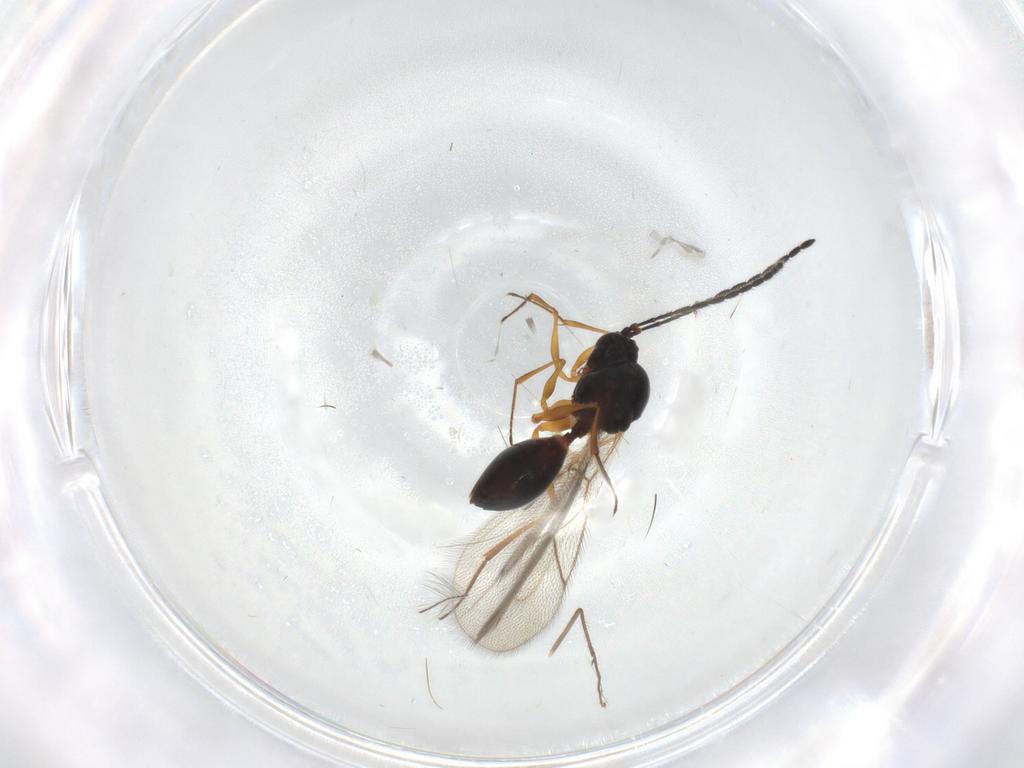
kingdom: Animalia
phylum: Arthropoda
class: Insecta
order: Hymenoptera
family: Figitidae
